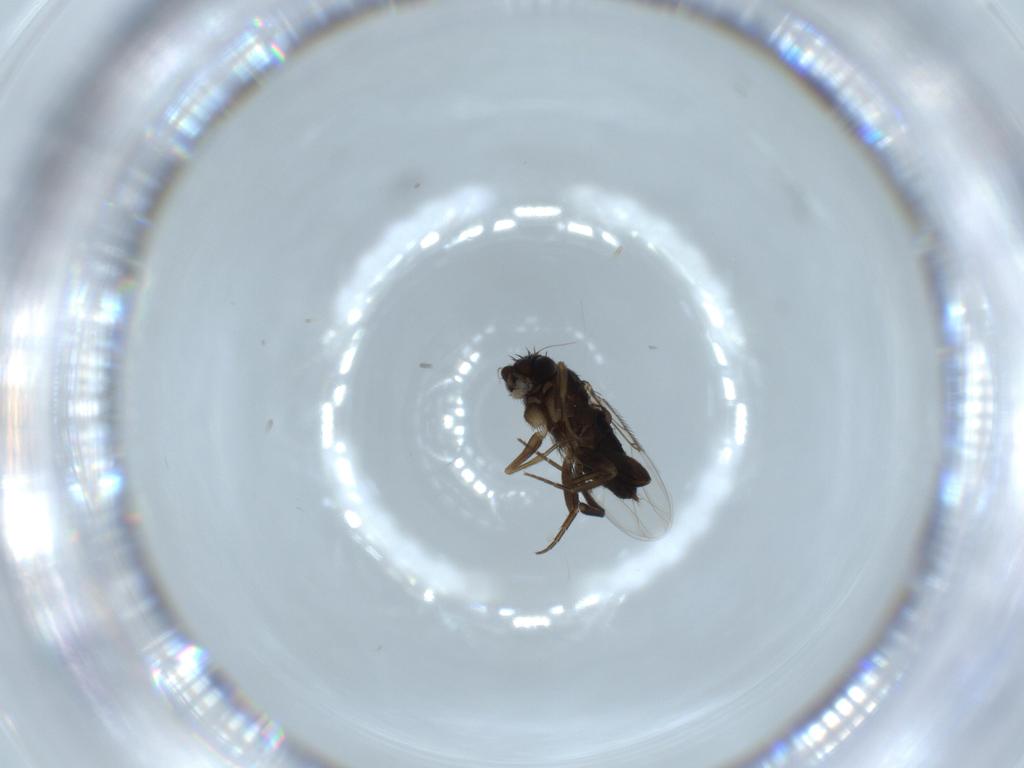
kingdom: Animalia
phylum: Arthropoda
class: Insecta
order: Diptera
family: Phoridae
